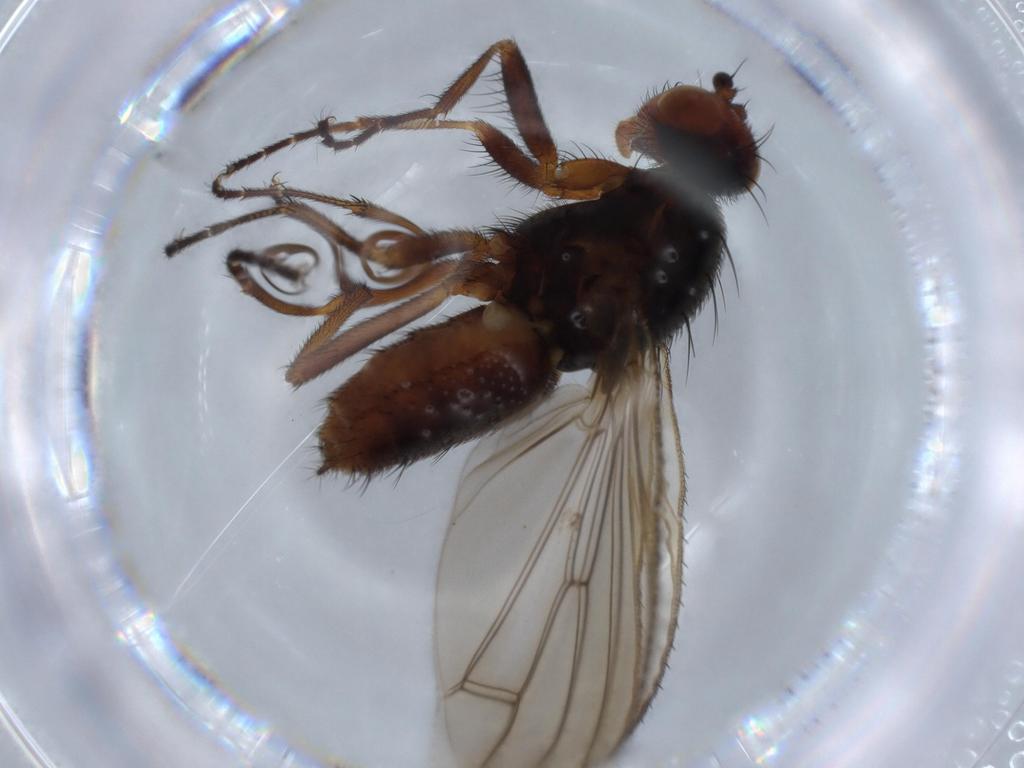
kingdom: Animalia
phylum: Arthropoda
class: Insecta
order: Diptera
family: Heleomyzidae
